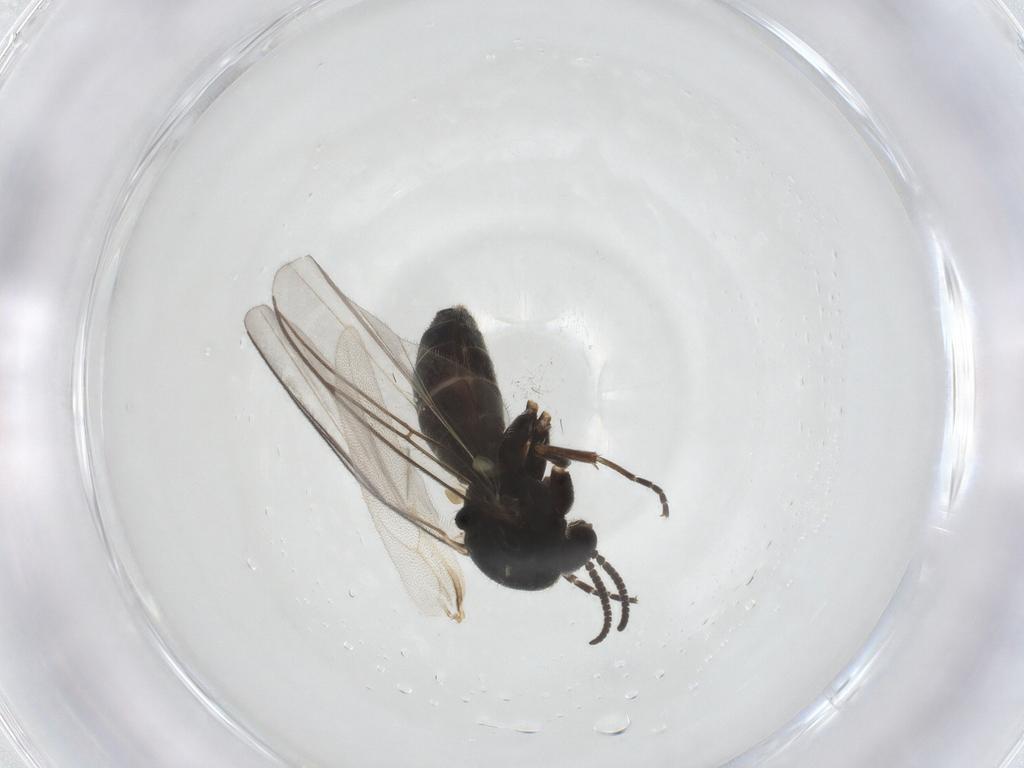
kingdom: Animalia
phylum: Arthropoda
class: Insecta
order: Diptera
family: Mycetophilidae
